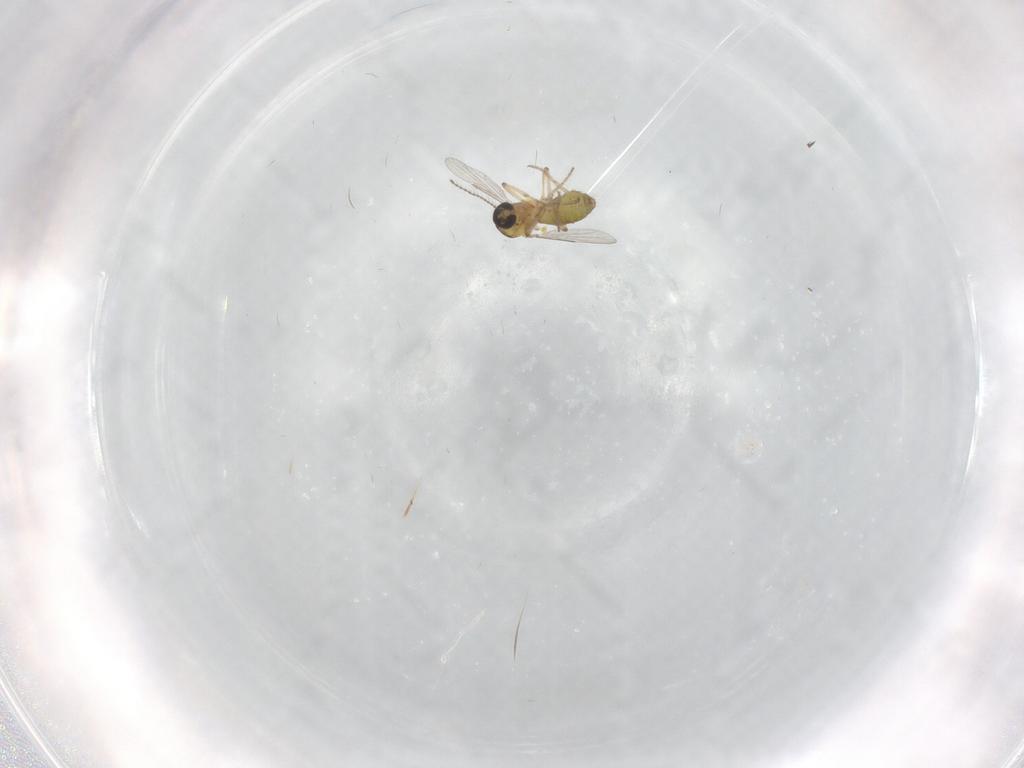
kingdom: Animalia
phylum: Arthropoda
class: Insecta
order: Diptera
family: Ceratopogonidae
